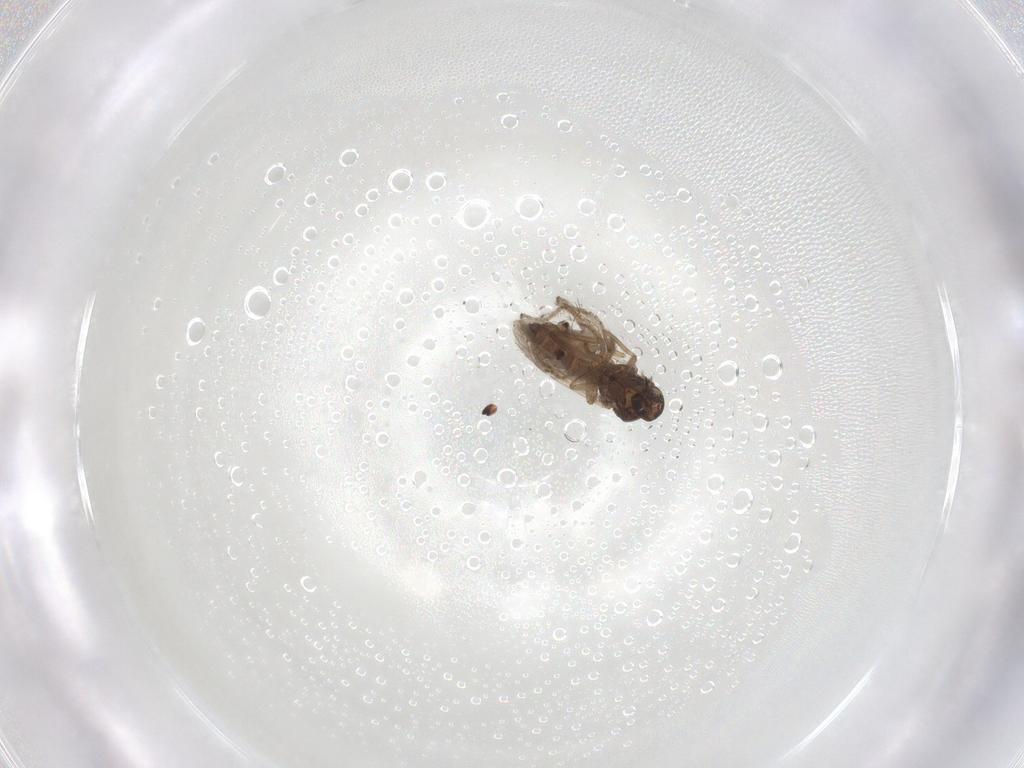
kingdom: Animalia
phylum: Arthropoda
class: Insecta
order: Diptera
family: Ceratopogonidae
